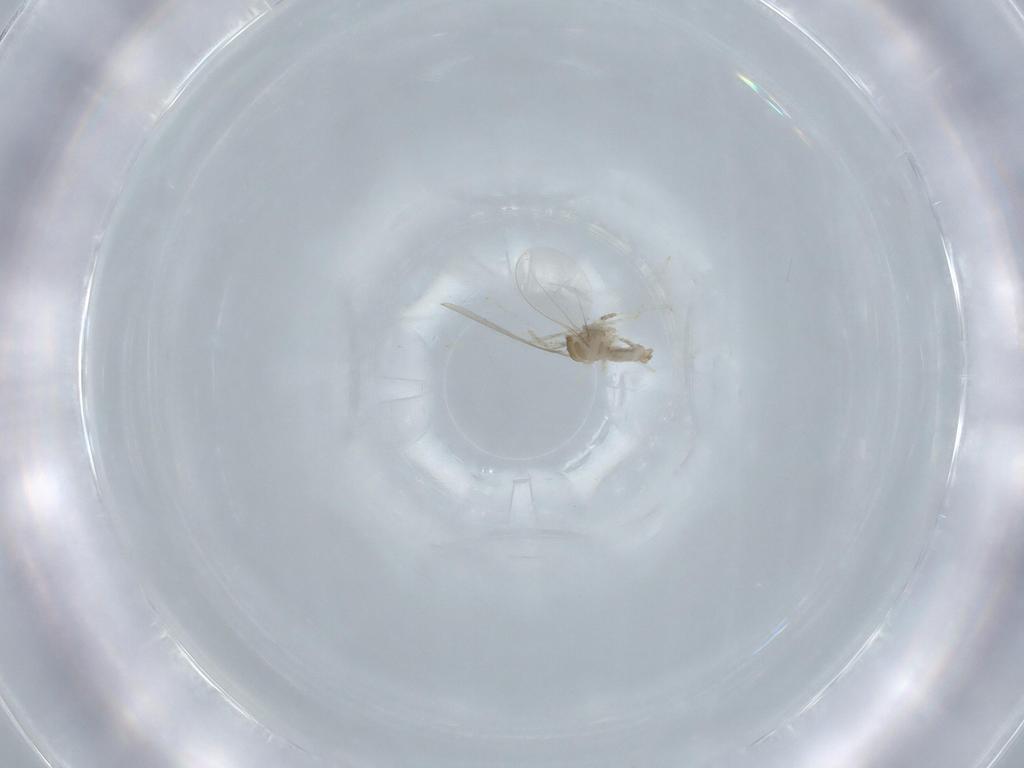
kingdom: Animalia
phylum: Arthropoda
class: Insecta
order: Diptera
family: Cecidomyiidae
